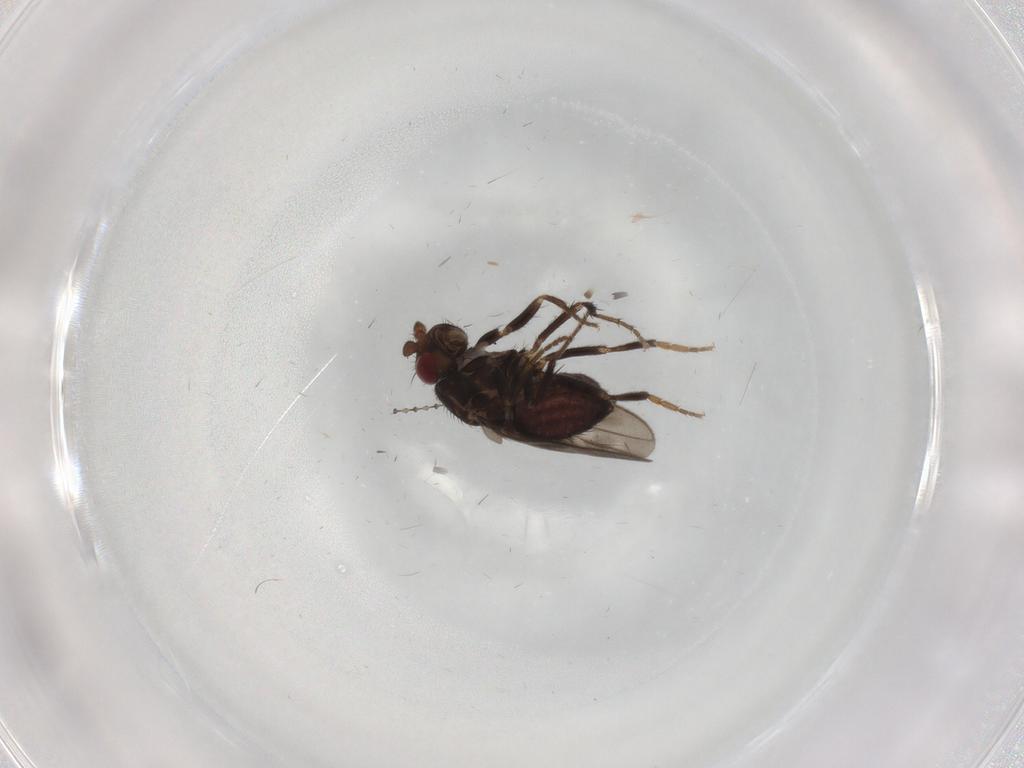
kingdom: Animalia
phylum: Arthropoda
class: Insecta
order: Diptera
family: Sphaeroceridae
